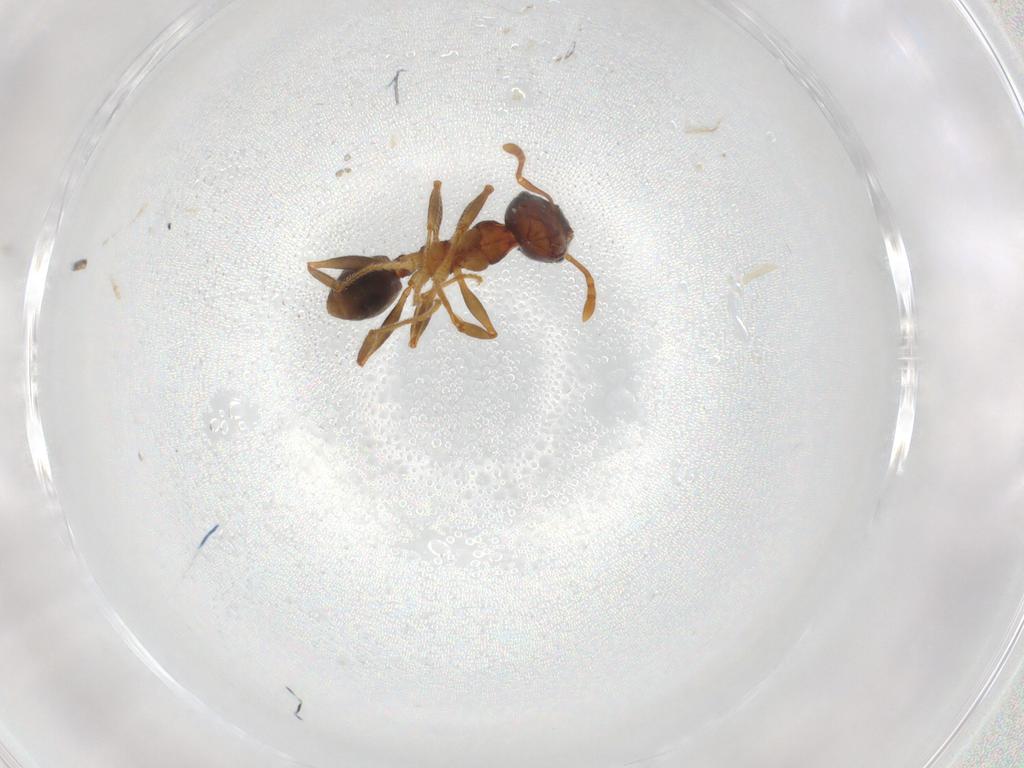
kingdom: Animalia
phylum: Arthropoda
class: Insecta
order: Hymenoptera
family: Formicidae
